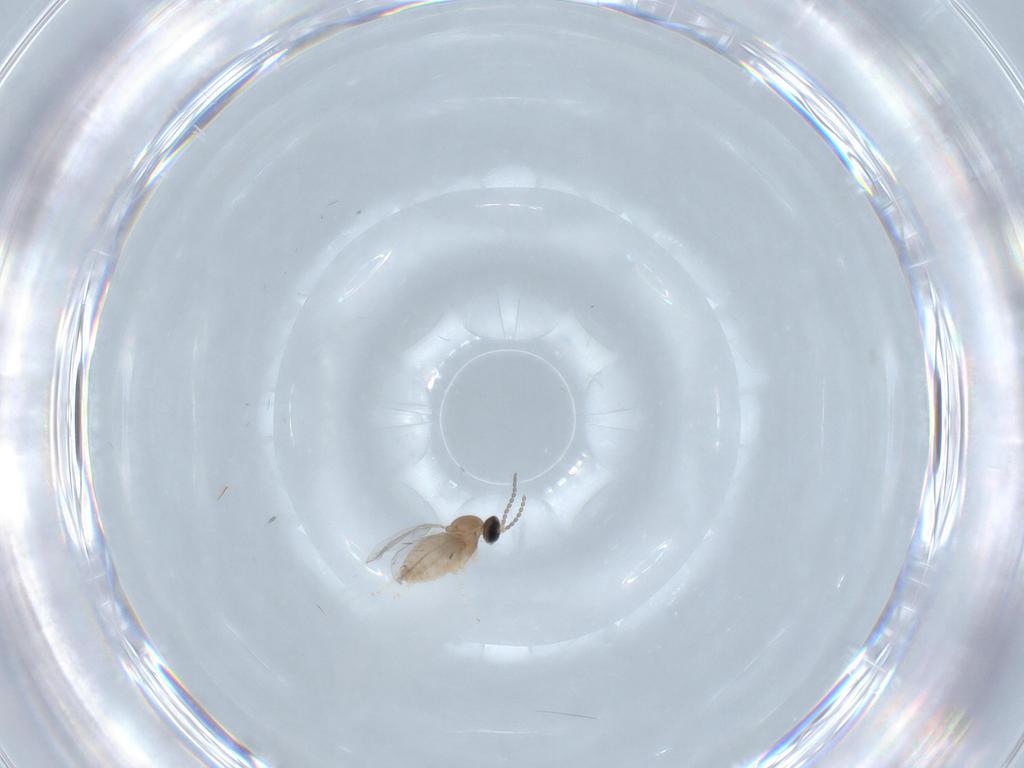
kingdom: Animalia
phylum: Arthropoda
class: Insecta
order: Diptera
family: Cecidomyiidae
